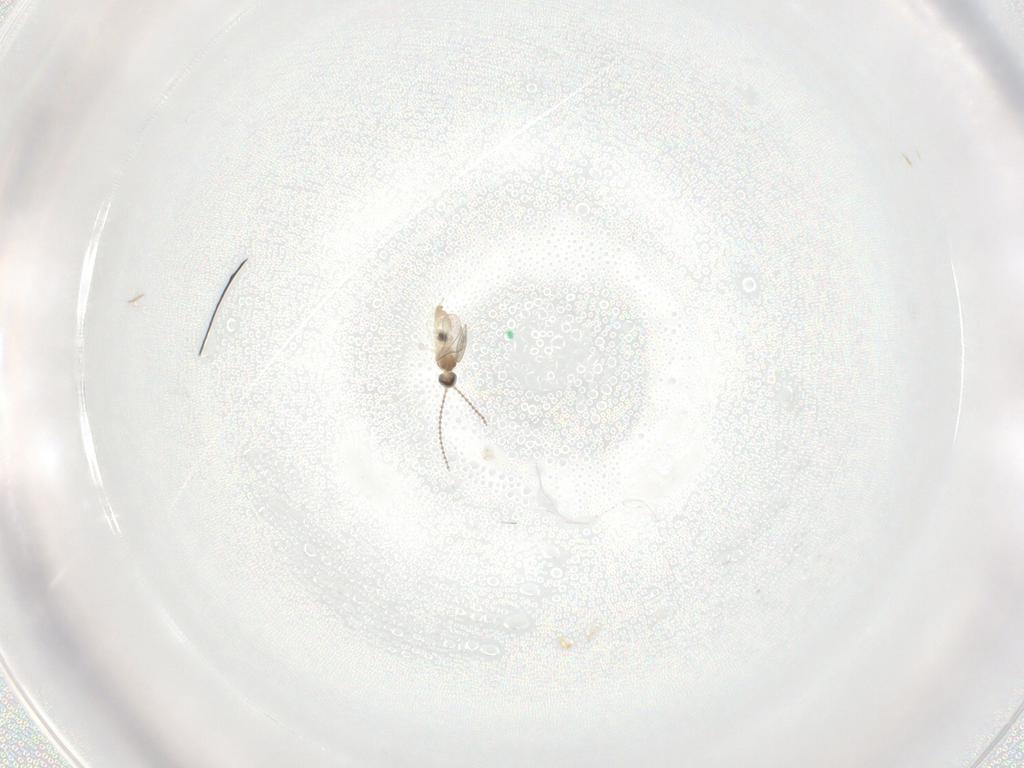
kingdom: Animalia
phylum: Arthropoda
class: Insecta
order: Diptera
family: Cecidomyiidae
